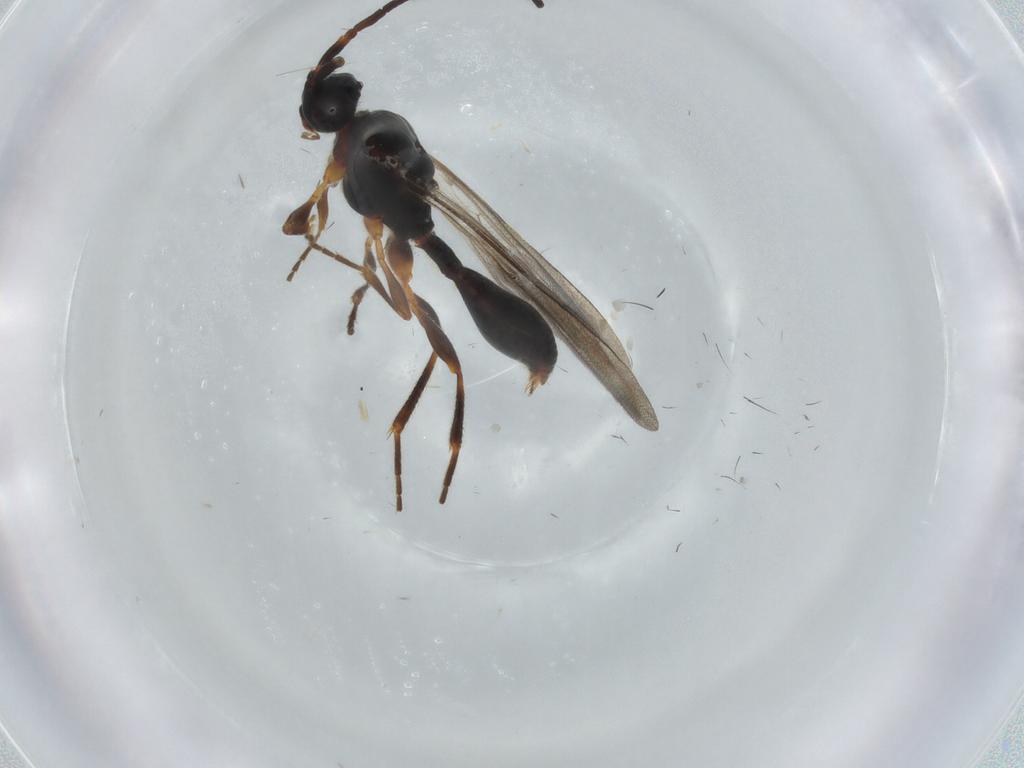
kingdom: Animalia
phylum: Arthropoda
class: Insecta
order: Hymenoptera
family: Diapriidae
